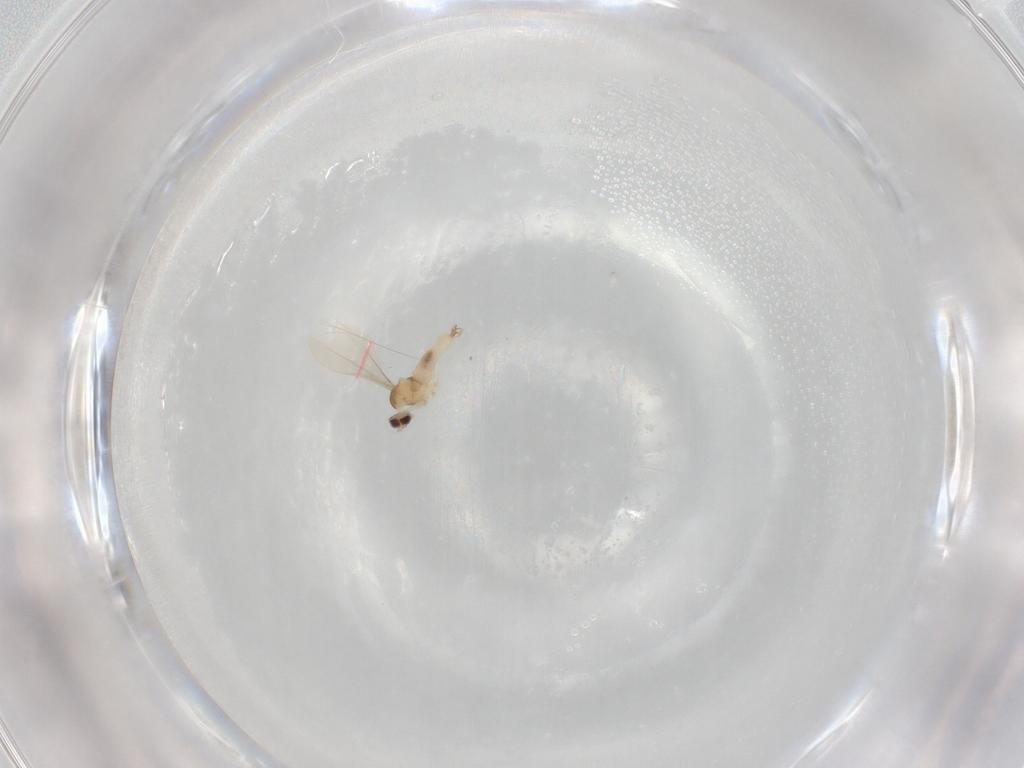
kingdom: Animalia
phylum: Arthropoda
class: Insecta
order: Diptera
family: Cecidomyiidae
